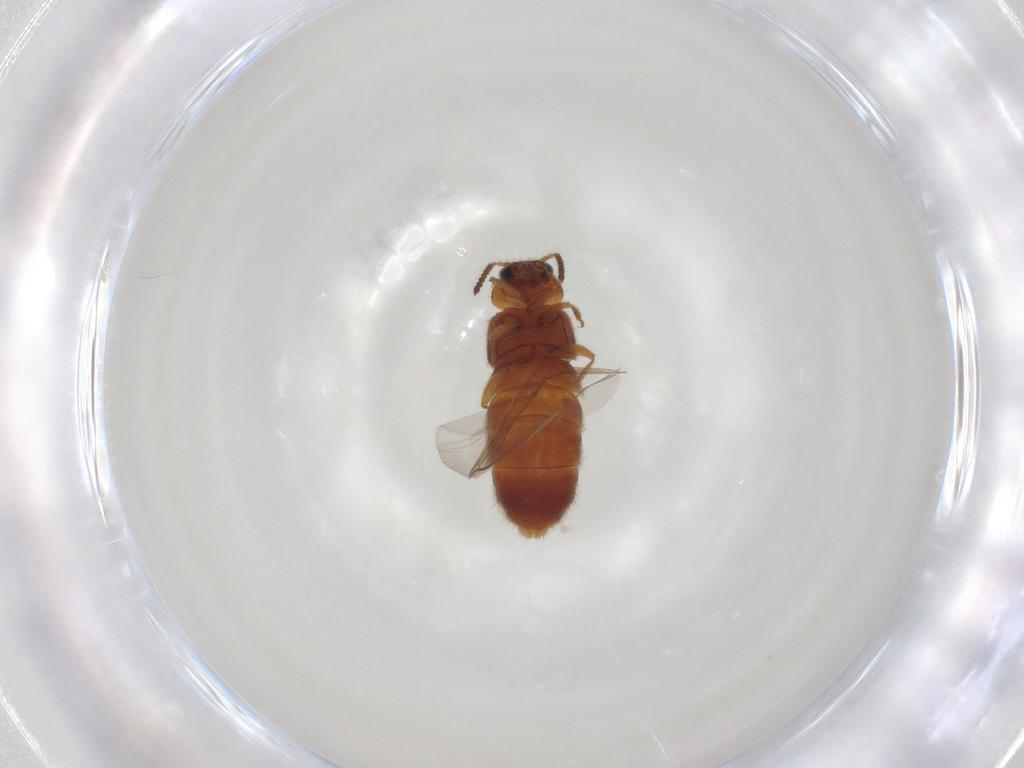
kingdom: Animalia
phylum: Arthropoda
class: Insecta
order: Coleoptera
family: Staphylinidae
